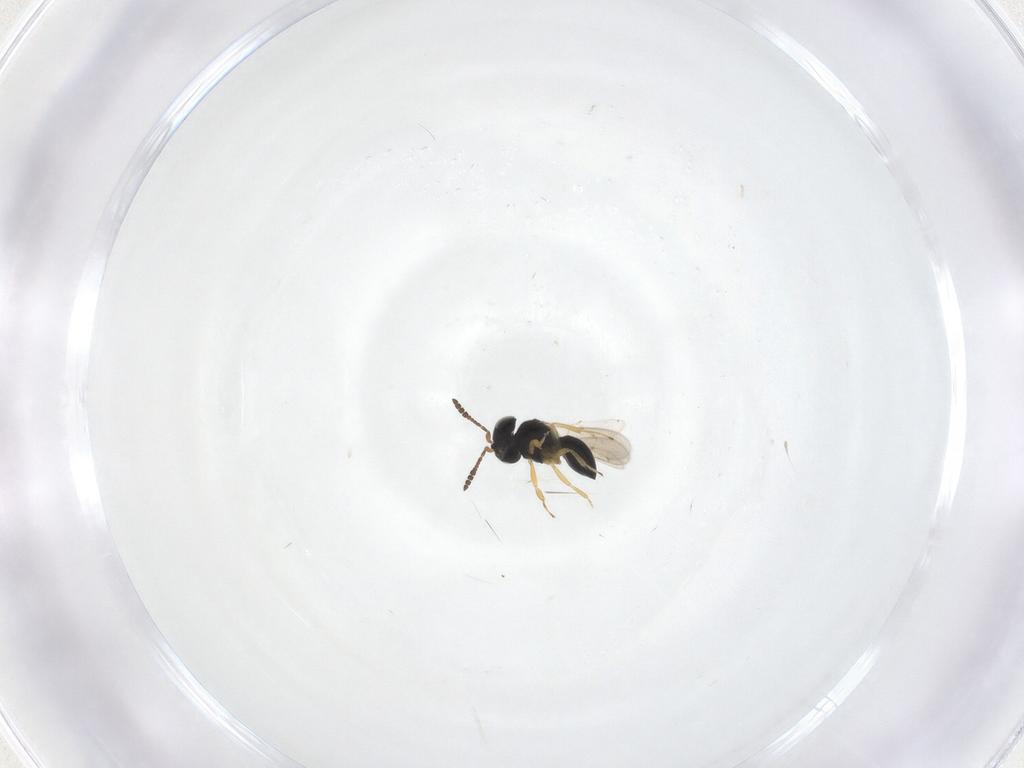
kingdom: Animalia
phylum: Arthropoda
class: Insecta
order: Hymenoptera
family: Scelionidae
